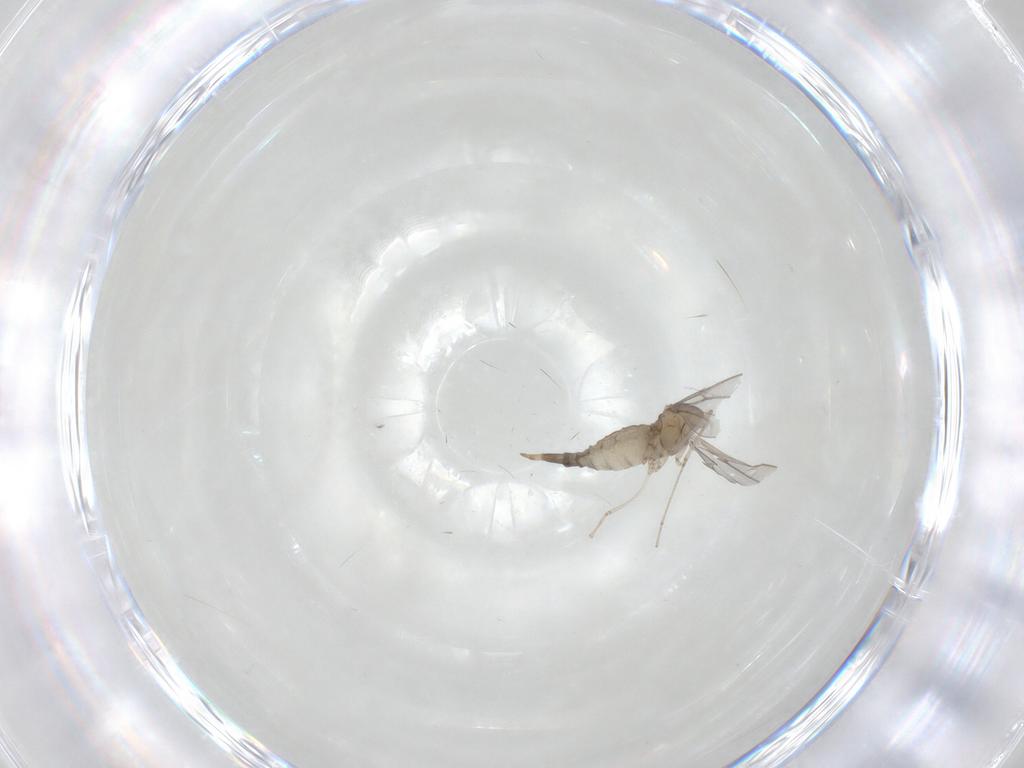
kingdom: Animalia
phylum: Arthropoda
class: Insecta
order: Diptera
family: Cecidomyiidae
